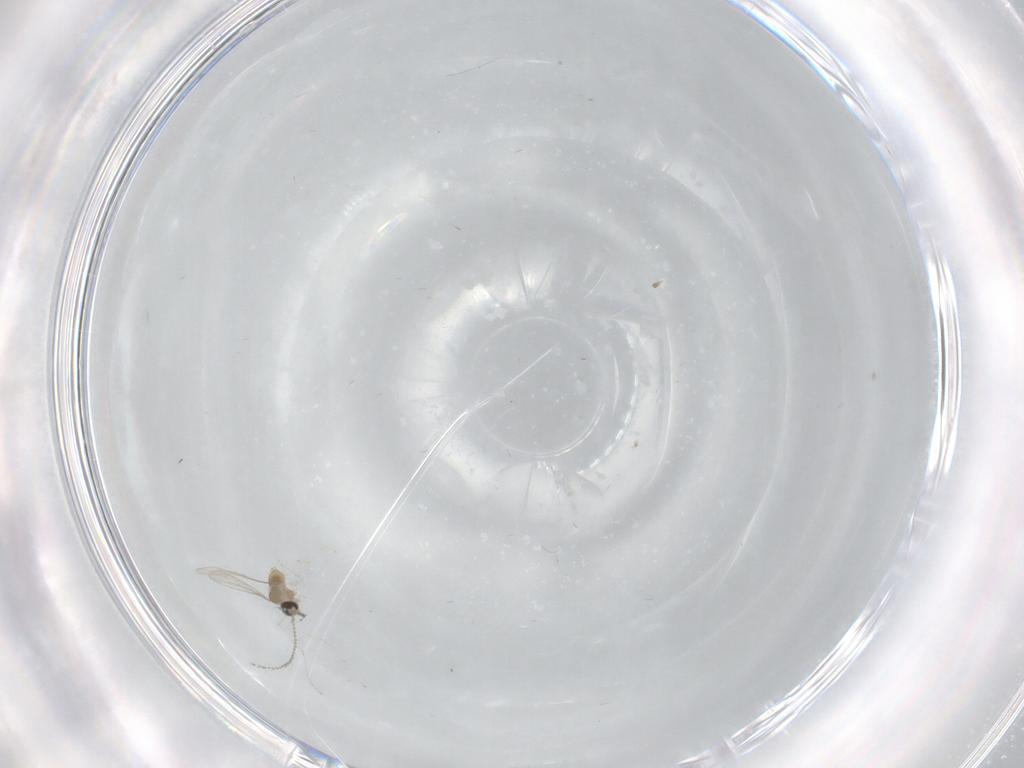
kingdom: Animalia
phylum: Arthropoda
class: Insecta
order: Diptera
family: Cecidomyiidae
